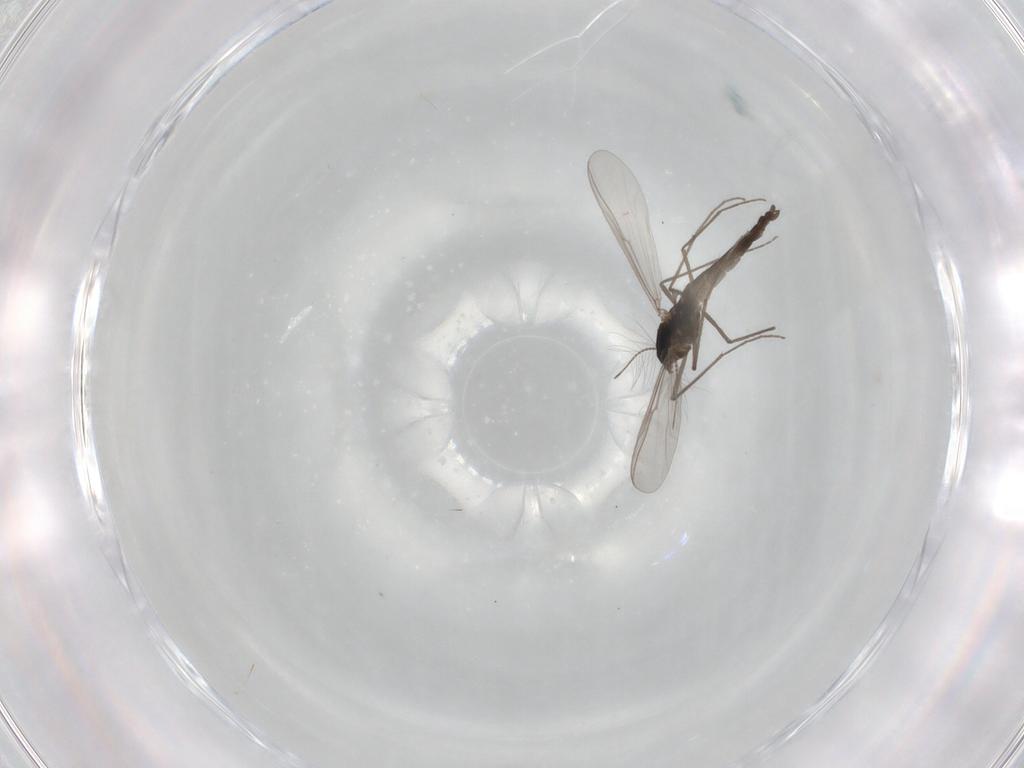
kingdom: Animalia
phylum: Arthropoda
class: Insecta
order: Diptera
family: Chironomidae
